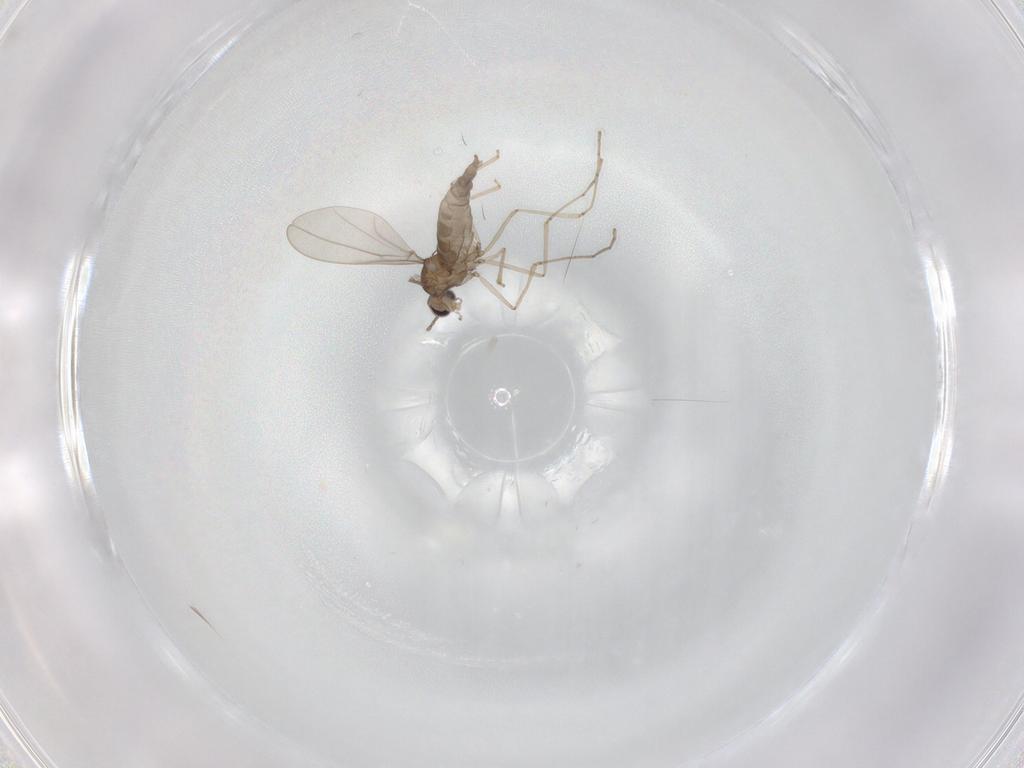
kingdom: Animalia
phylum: Arthropoda
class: Insecta
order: Diptera
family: Cecidomyiidae
